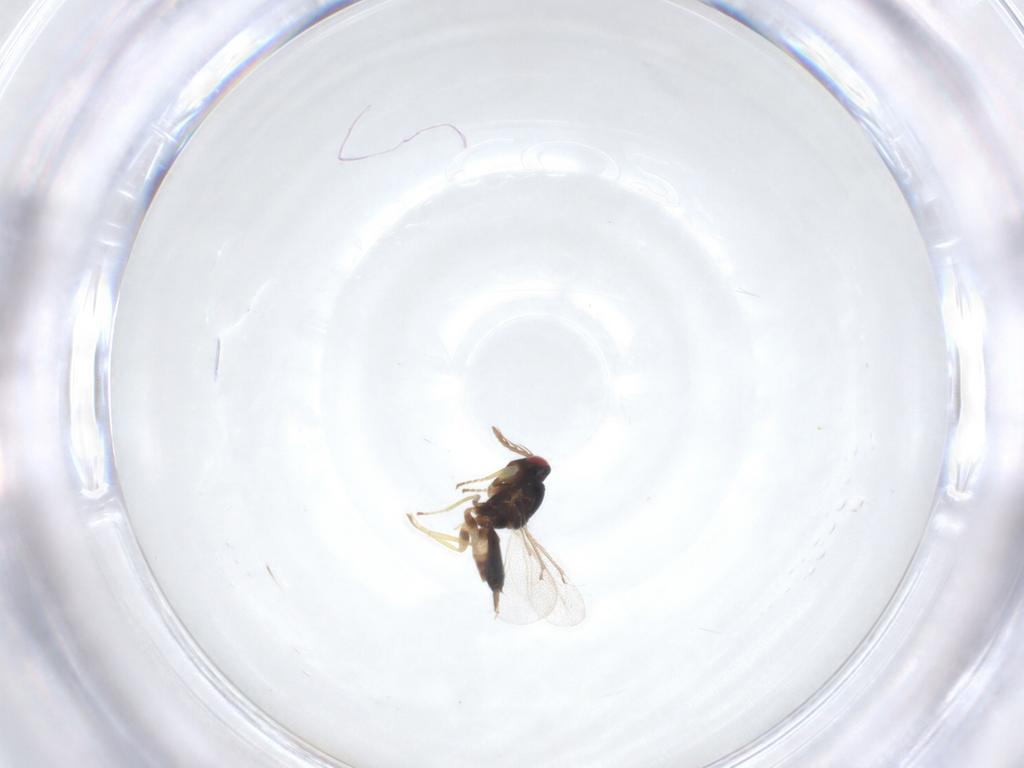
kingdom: Animalia
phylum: Arthropoda
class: Insecta
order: Hymenoptera
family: Eulophidae
